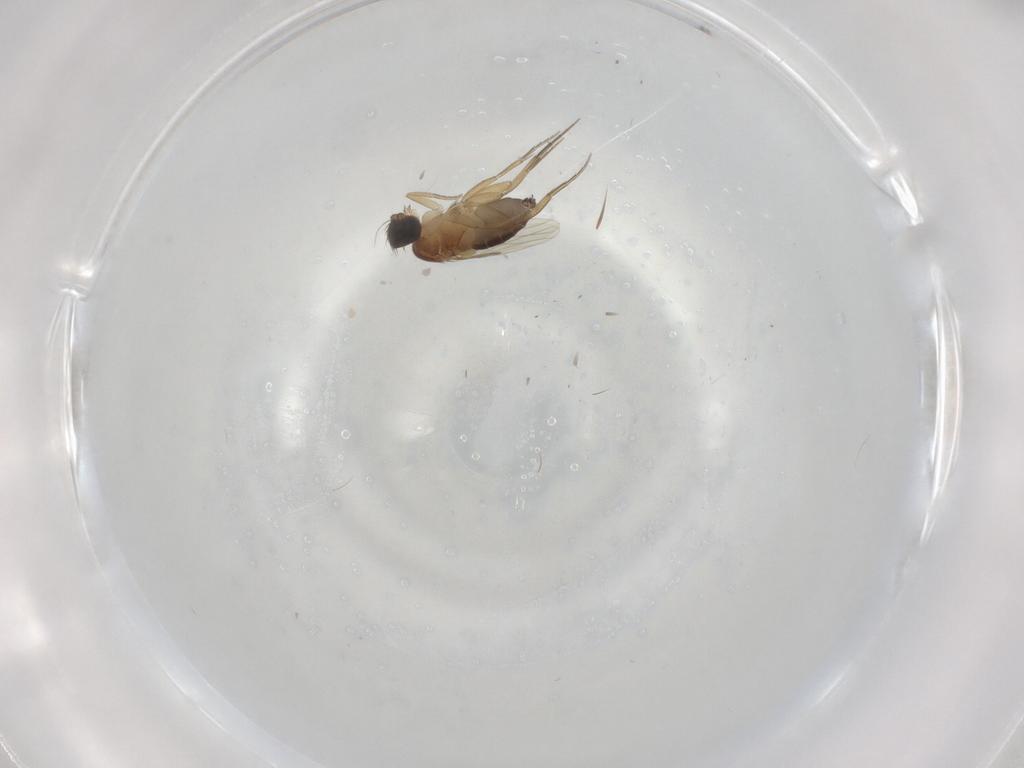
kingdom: Animalia
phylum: Arthropoda
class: Insecta
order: Diptera
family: Phoridae
